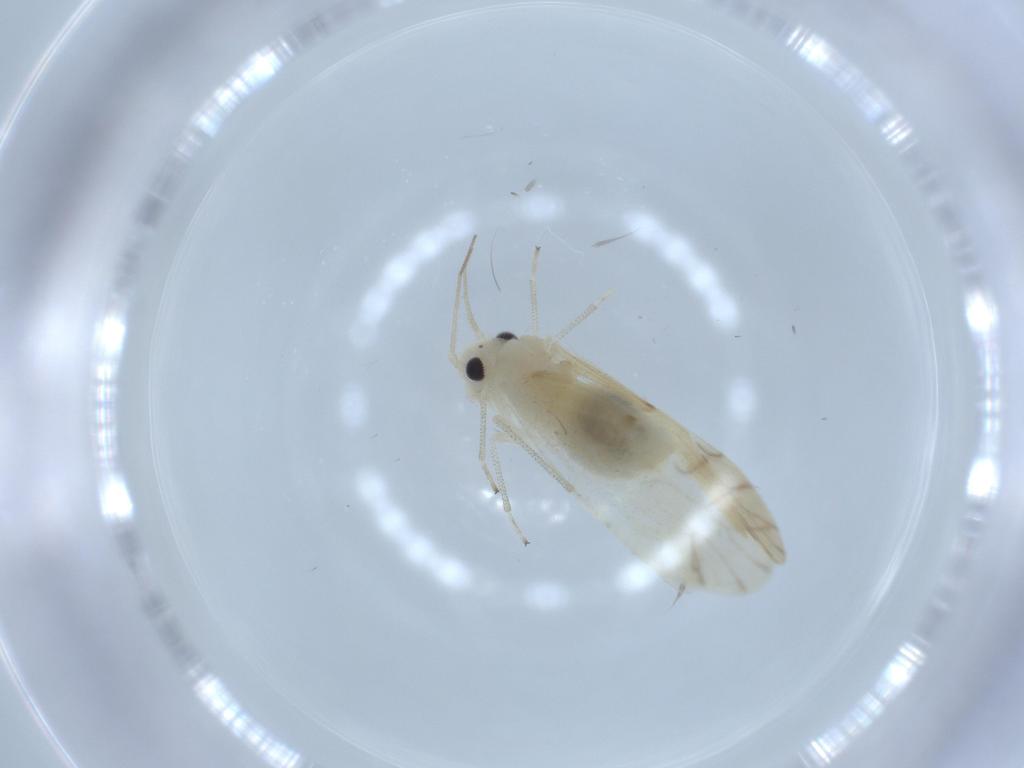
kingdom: Animalia
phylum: Arthropoda
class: Insecta
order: Psocodea
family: Caeciliusidae
